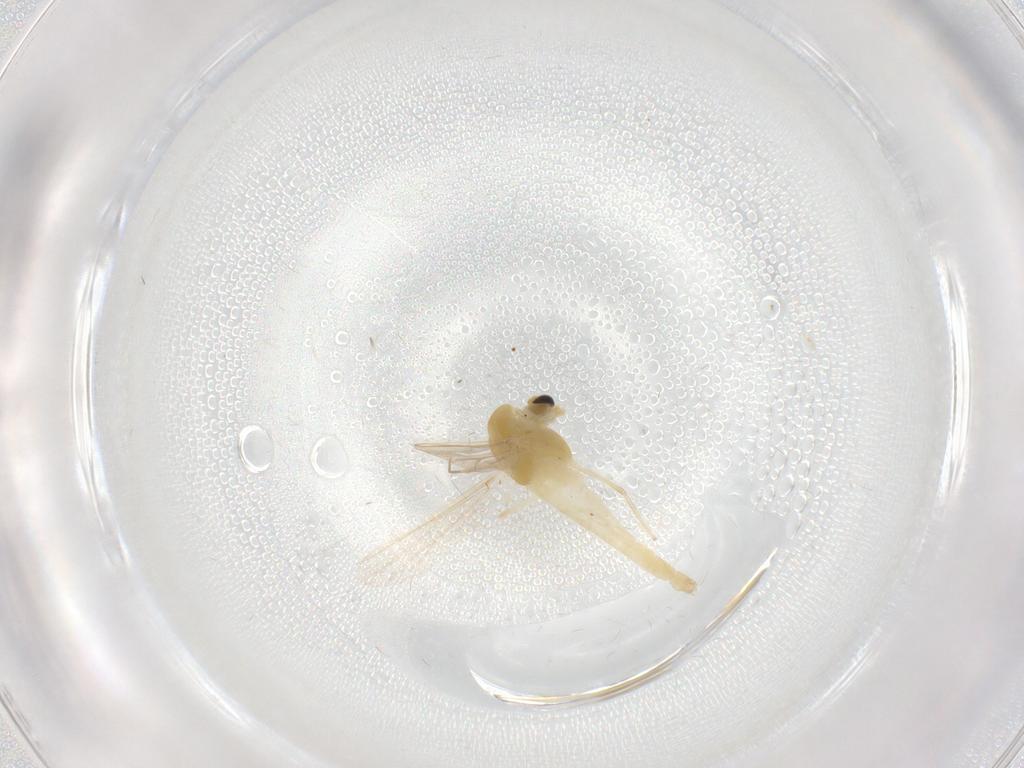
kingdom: Animalia
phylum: Arthropoda
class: Insecta
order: Diptera
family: Chironomidae
